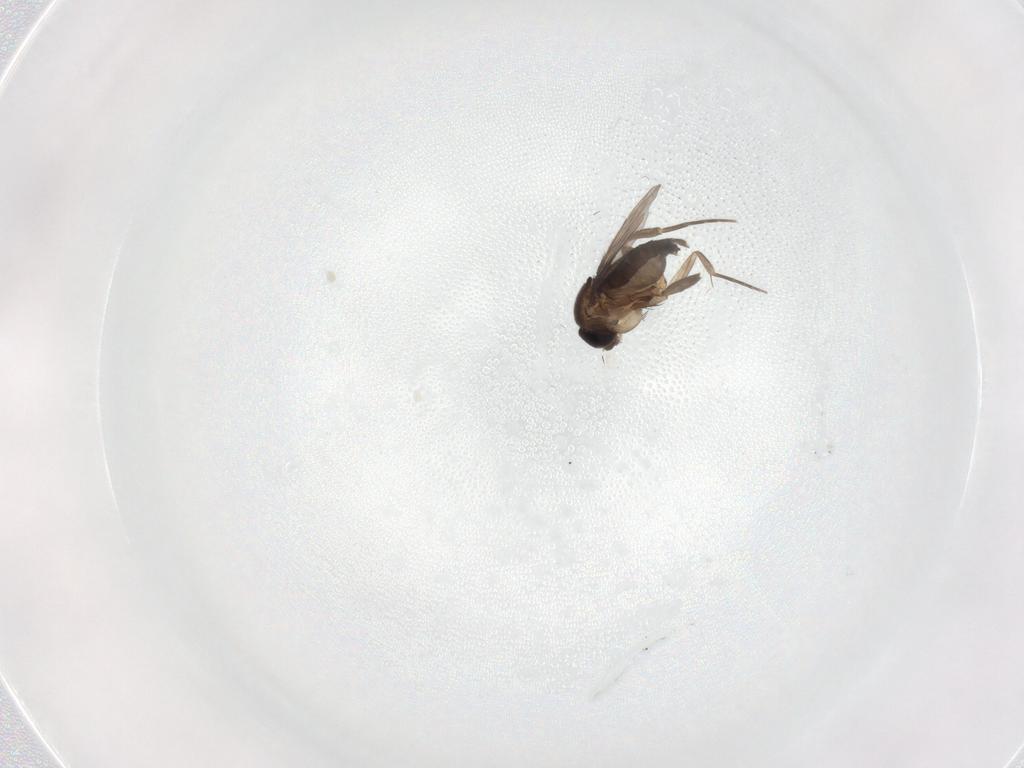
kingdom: Animalia
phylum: Arthropoda
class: Insecta
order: Diptera
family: Phoridae
